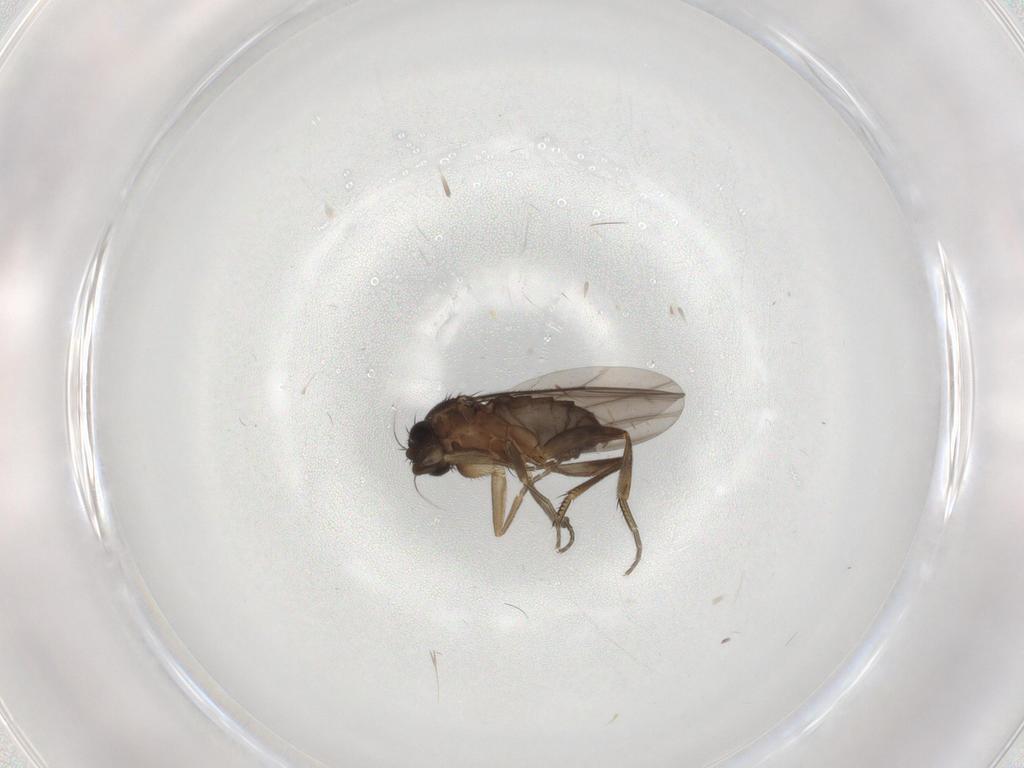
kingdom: Animalia
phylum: Arthropoda
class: Insecta
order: Diptera
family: Phoridae
